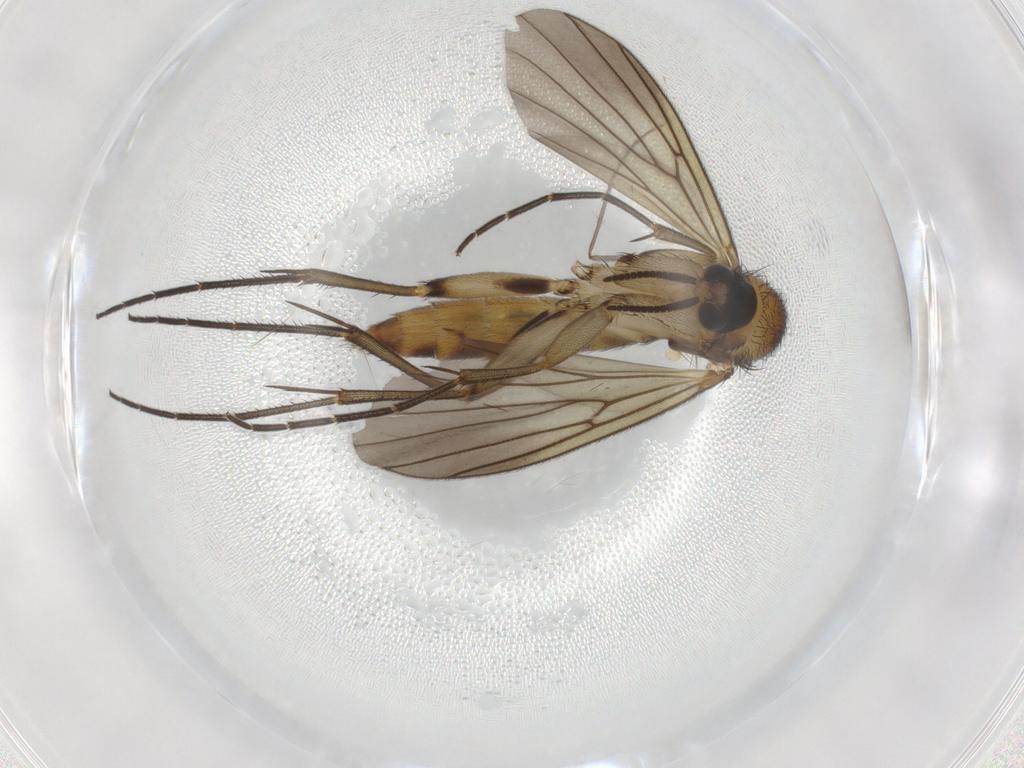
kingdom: Animalia
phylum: Arthropoda
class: Insecta
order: Diptera
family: Mycetophilidae
